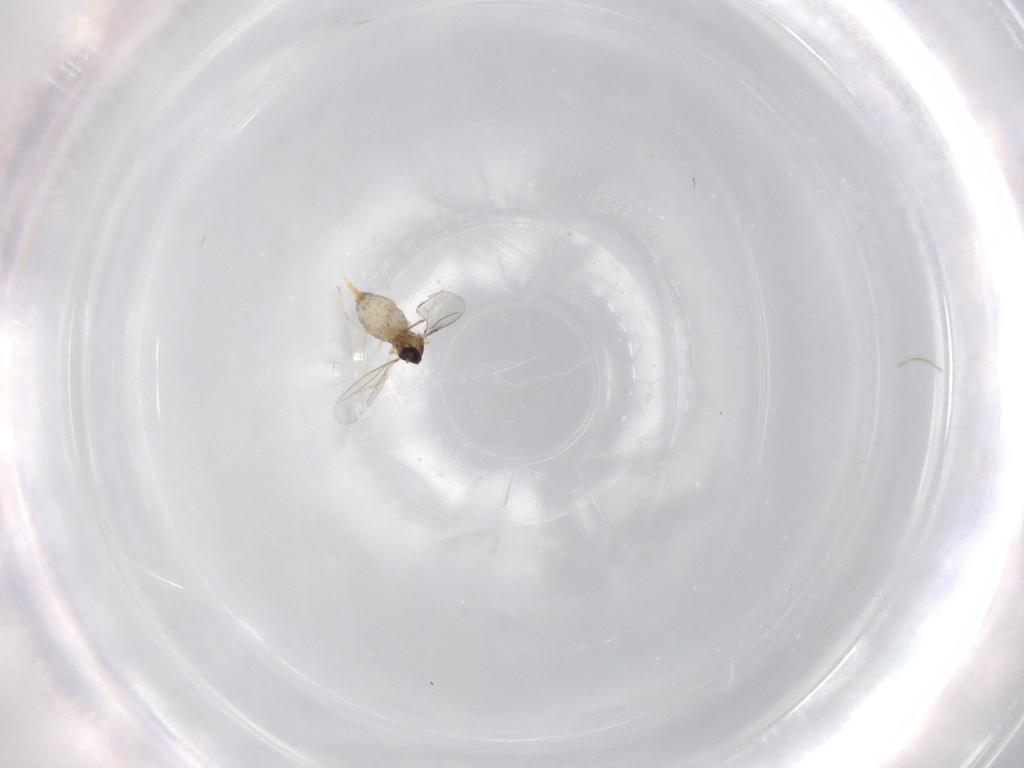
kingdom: Animalia
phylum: Arthropoda
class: Insecta
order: Diptera
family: Cecidomyiidae
